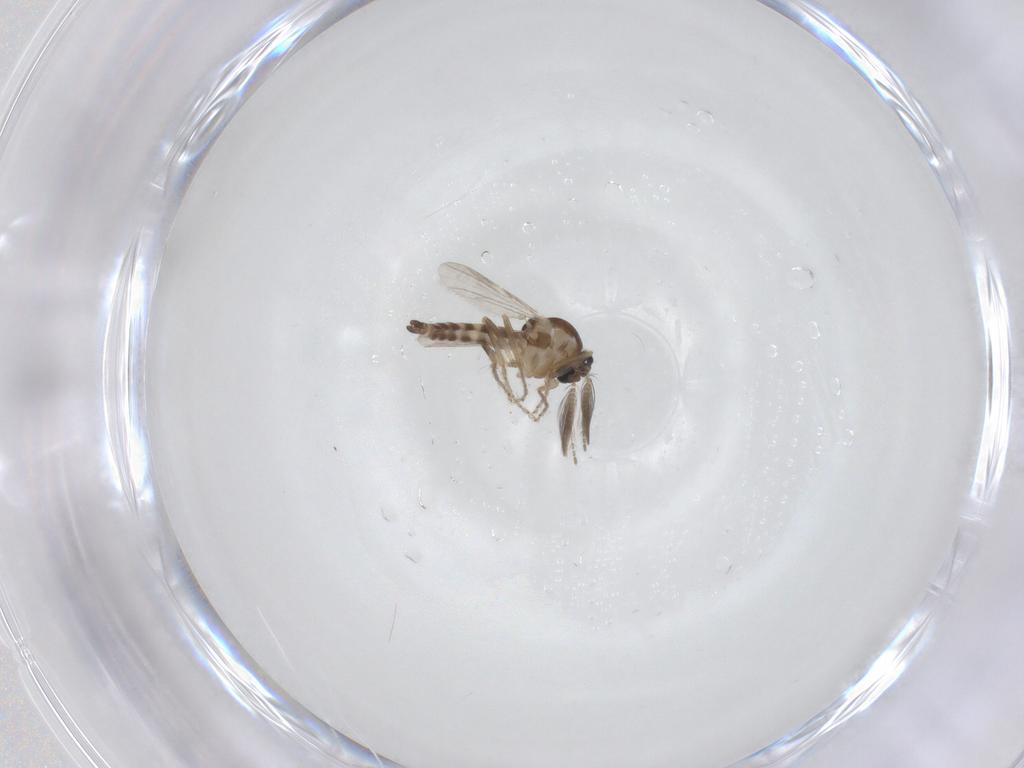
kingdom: Animalia
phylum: Arthropoda
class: Insecta
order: Diptera
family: Ceratopogonidae
